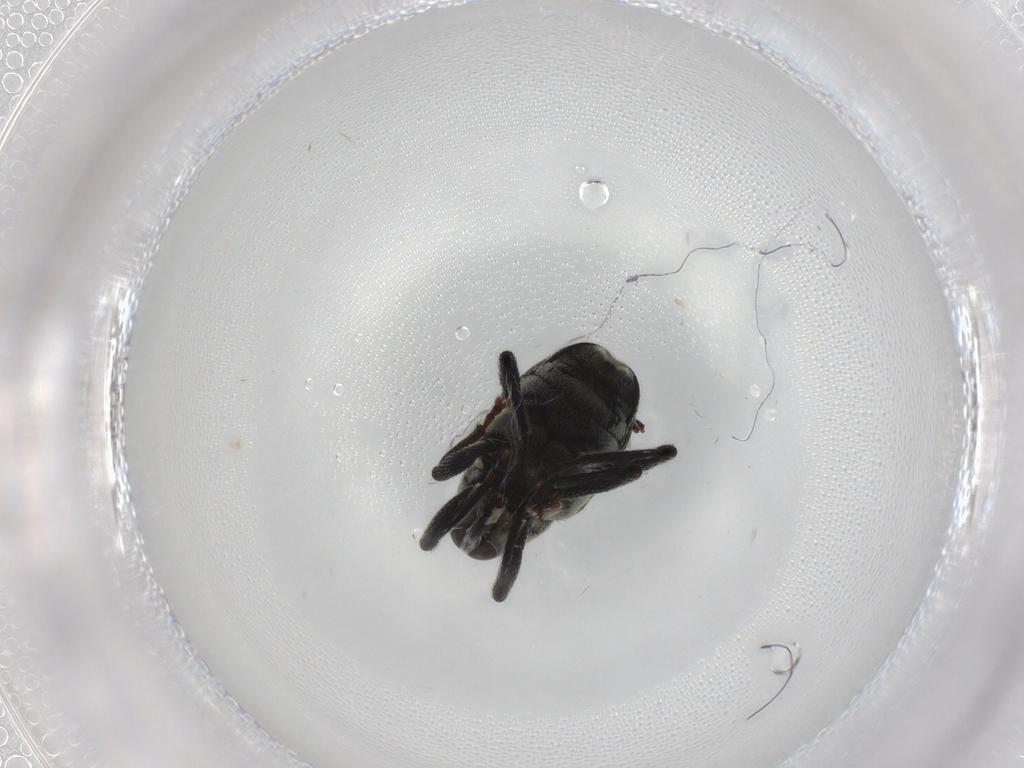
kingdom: Animalia
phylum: Arthropoda
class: Insecta
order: Coleoptera
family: Curculionidae
